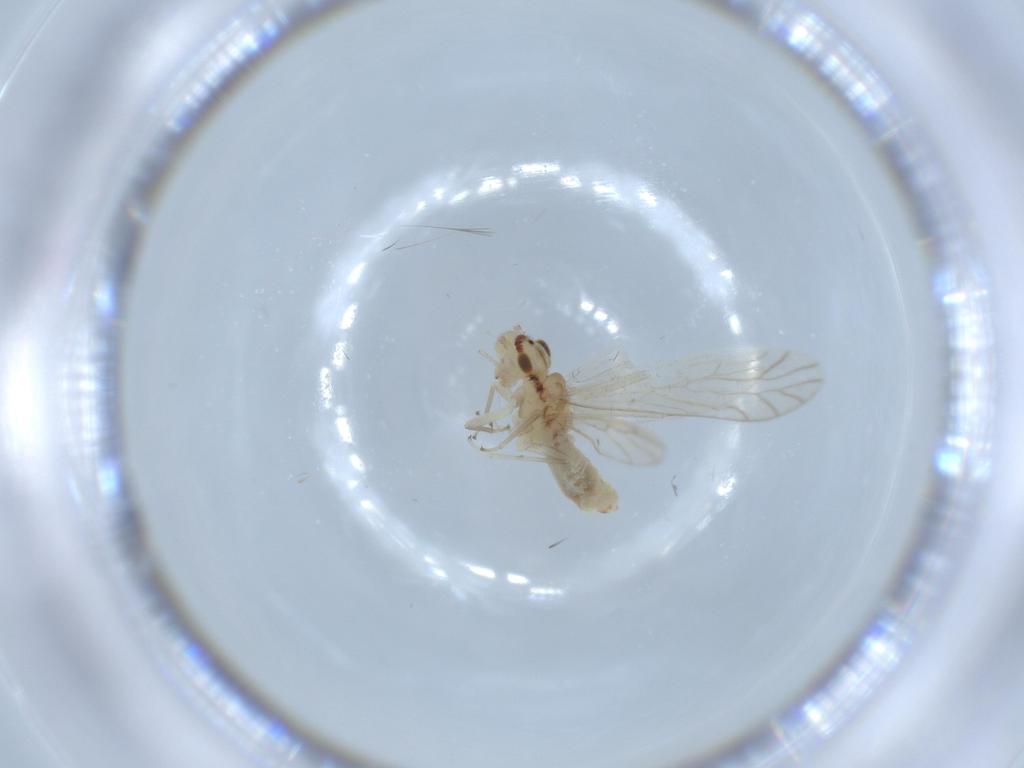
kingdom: Animalia
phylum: Arthropoda
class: Insecta
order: Psocodea
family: Caeciliusidae
